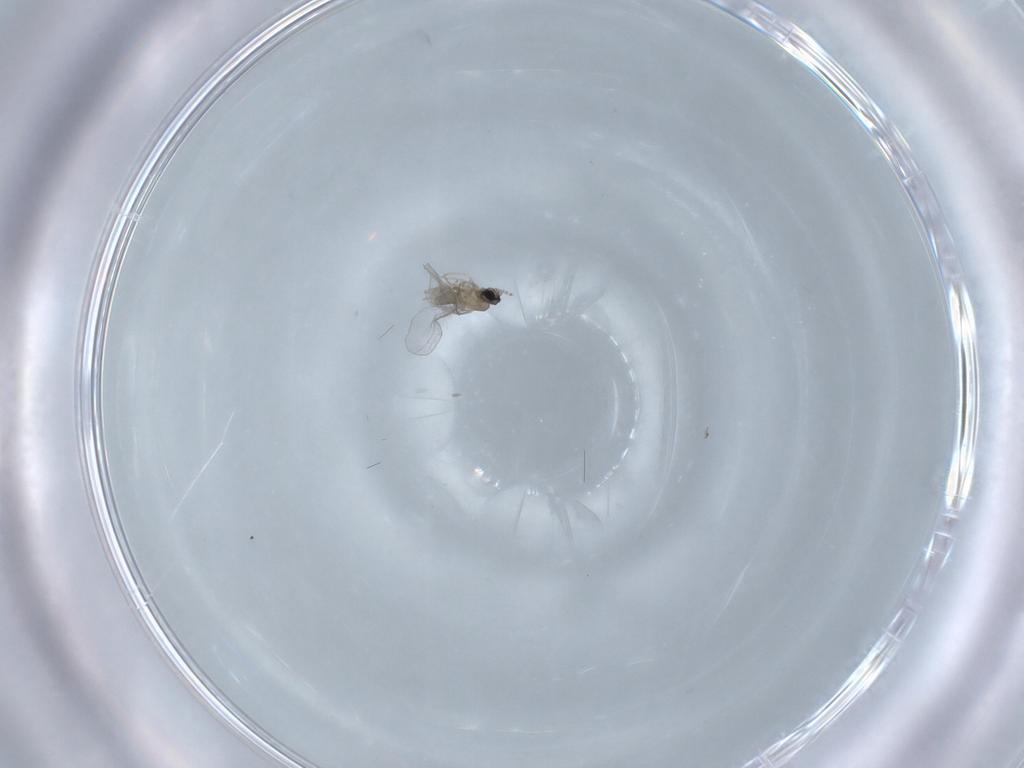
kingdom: Animalia
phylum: Arthropoda
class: Insecta
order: Diptera
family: Cecidomyiidae
